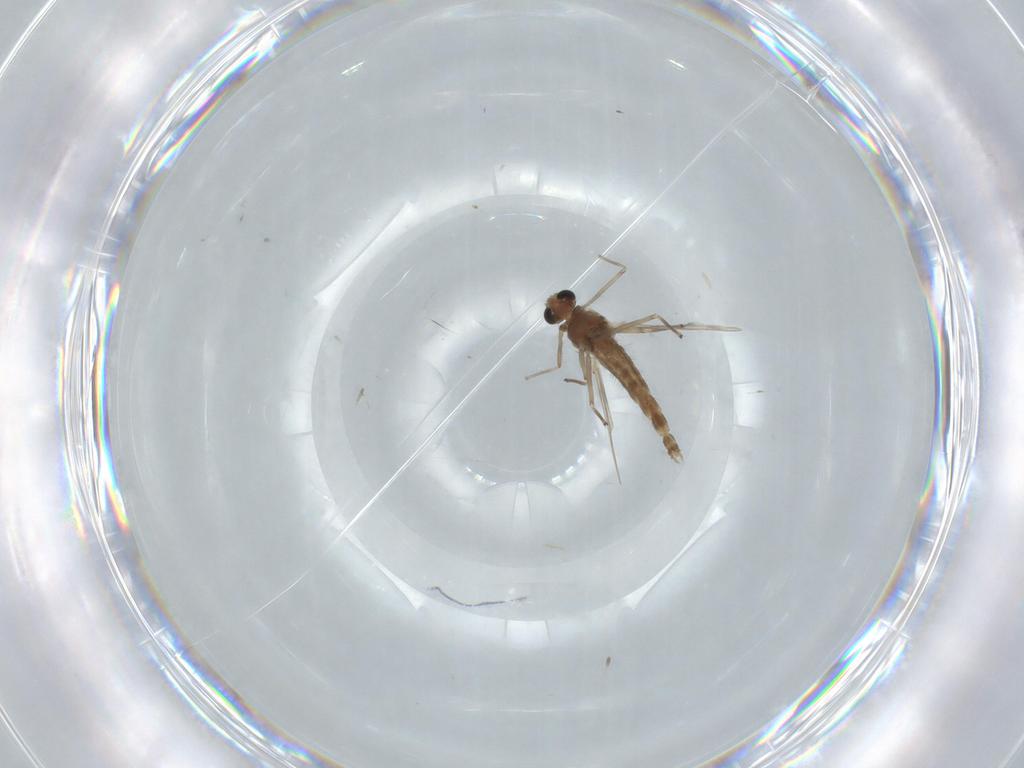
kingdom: Animalia
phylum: Arthropoda
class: Insecta
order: Diptera
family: Chironomidae
